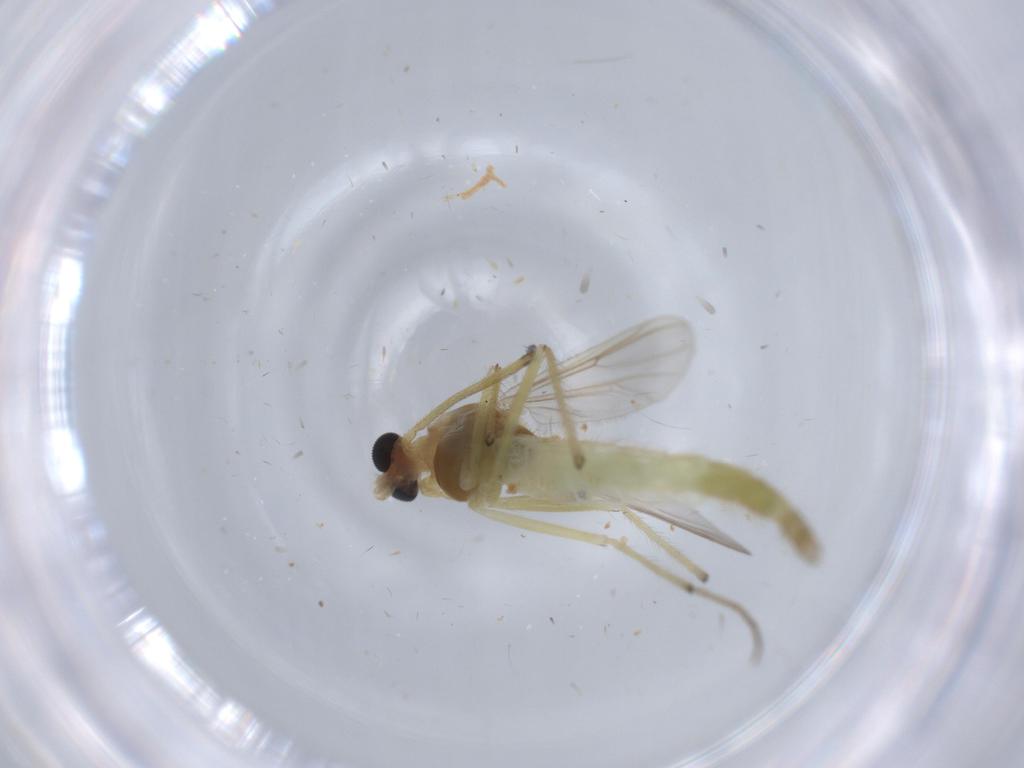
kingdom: Animalia
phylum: Arthropoda
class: Insecta
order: Diptera
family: Chironomidae
